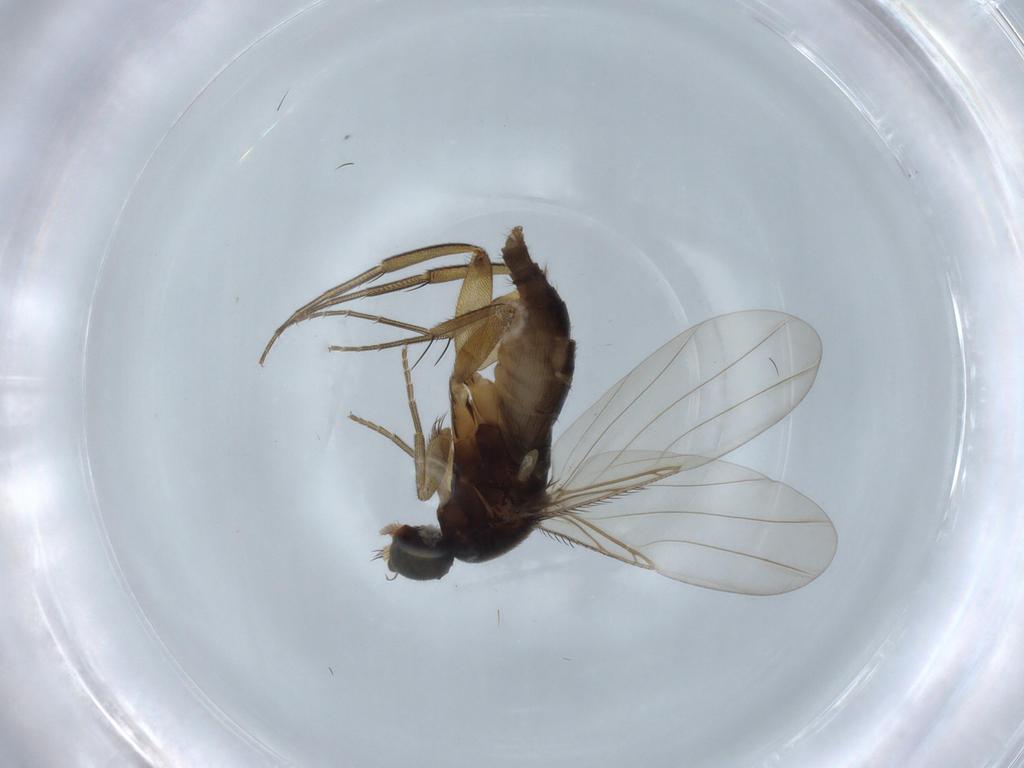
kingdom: Animalia
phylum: Arthropoda
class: Insecta
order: Diptera
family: Phoridae
